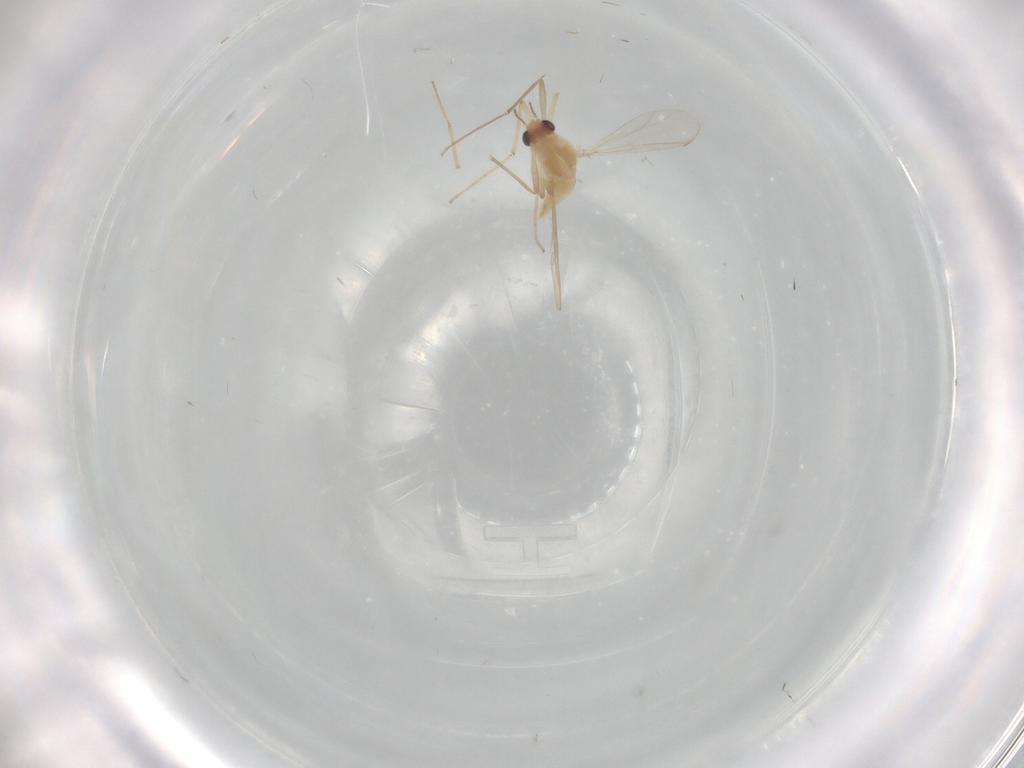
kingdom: Animalia
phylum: Arthropoda
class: Insecta
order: Diptera
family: Chironomidae
